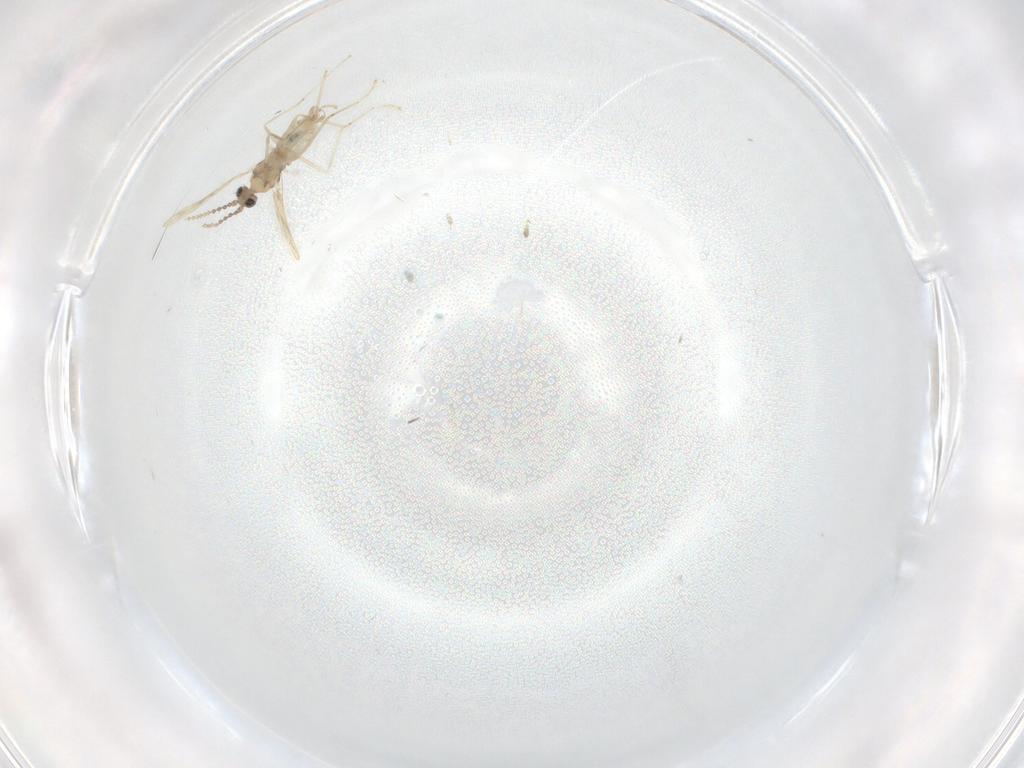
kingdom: Animalia
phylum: Arthropoda
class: Insecta
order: Diptera
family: Cecidomyiidae
